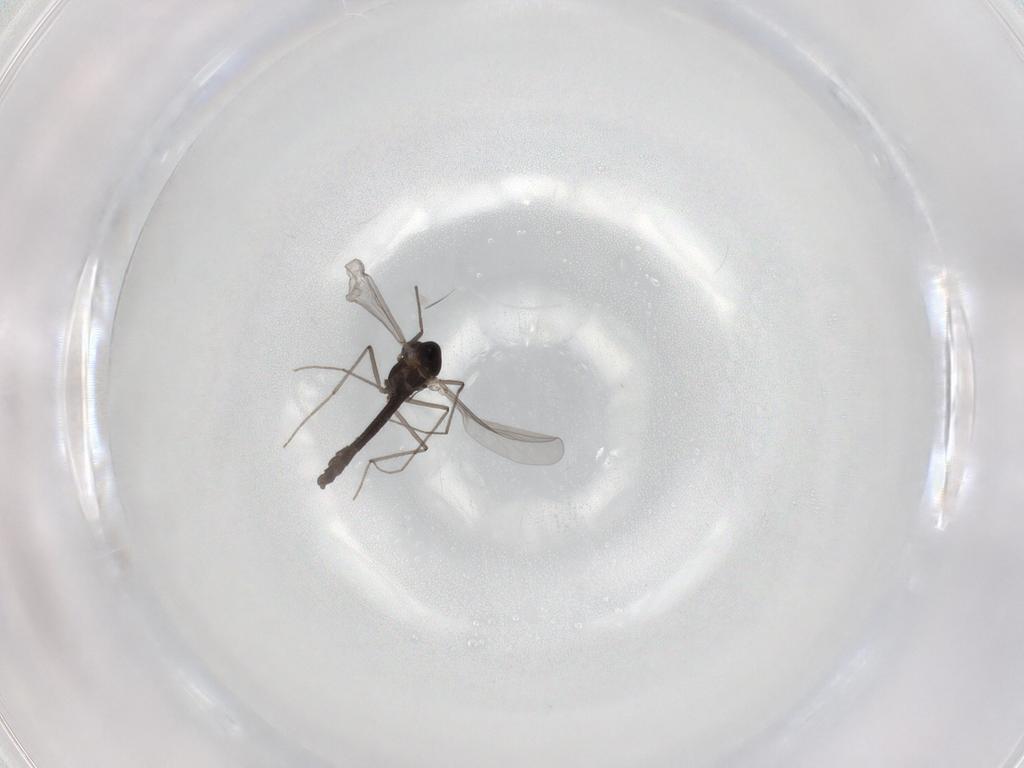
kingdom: Animalia
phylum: Arthropoda
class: Insecta
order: Diptera
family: Chironomidae
